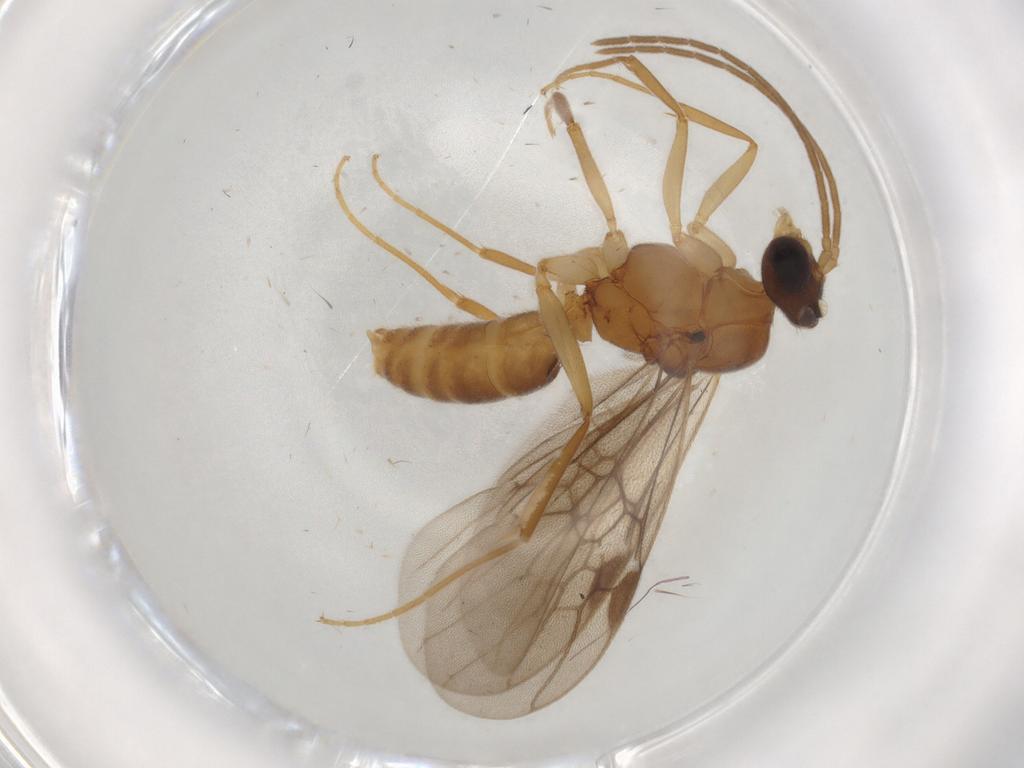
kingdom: Animalia
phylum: Arthropoda
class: Insecta
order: Hymenoptera
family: Formicidae
